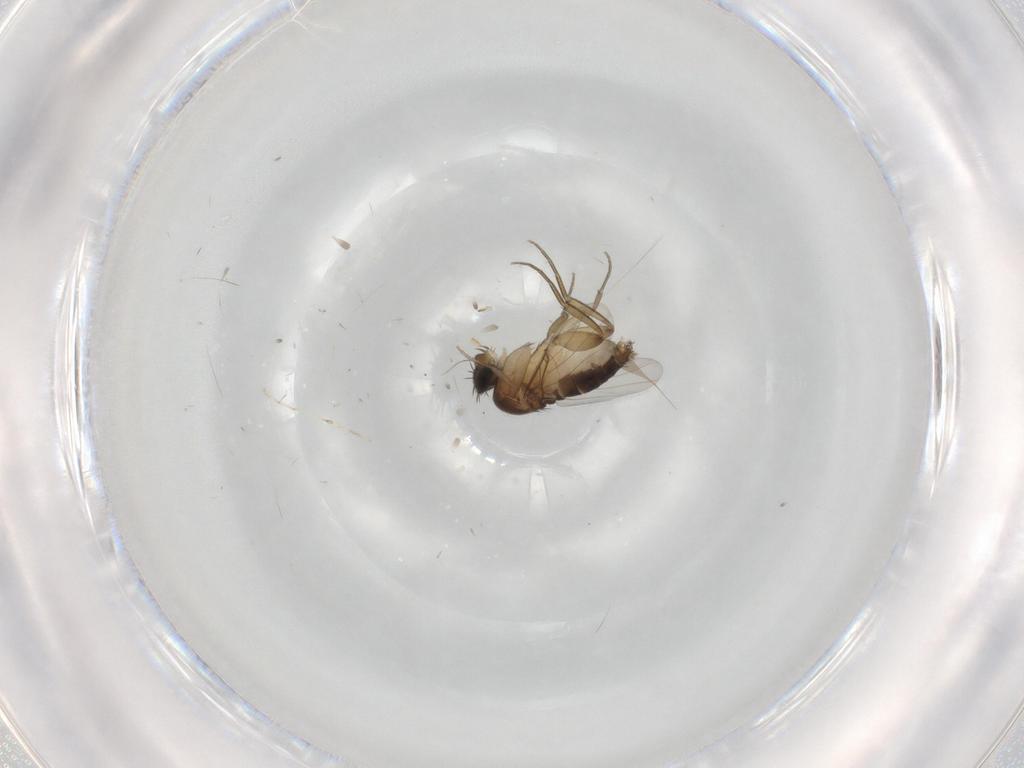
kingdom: Animalia
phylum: Arthropoda
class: Insecta
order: Diptera
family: Phoridae
